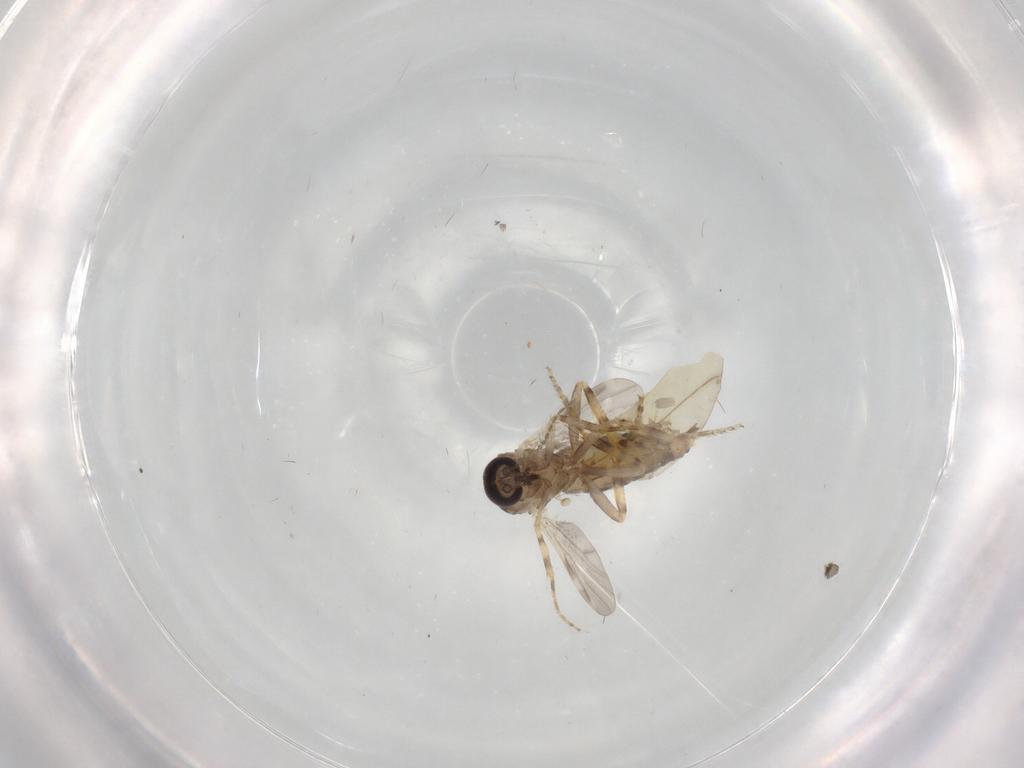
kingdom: Animalia
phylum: Arthropoda
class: Insecta
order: Diptera
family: Ceratopogonidae
